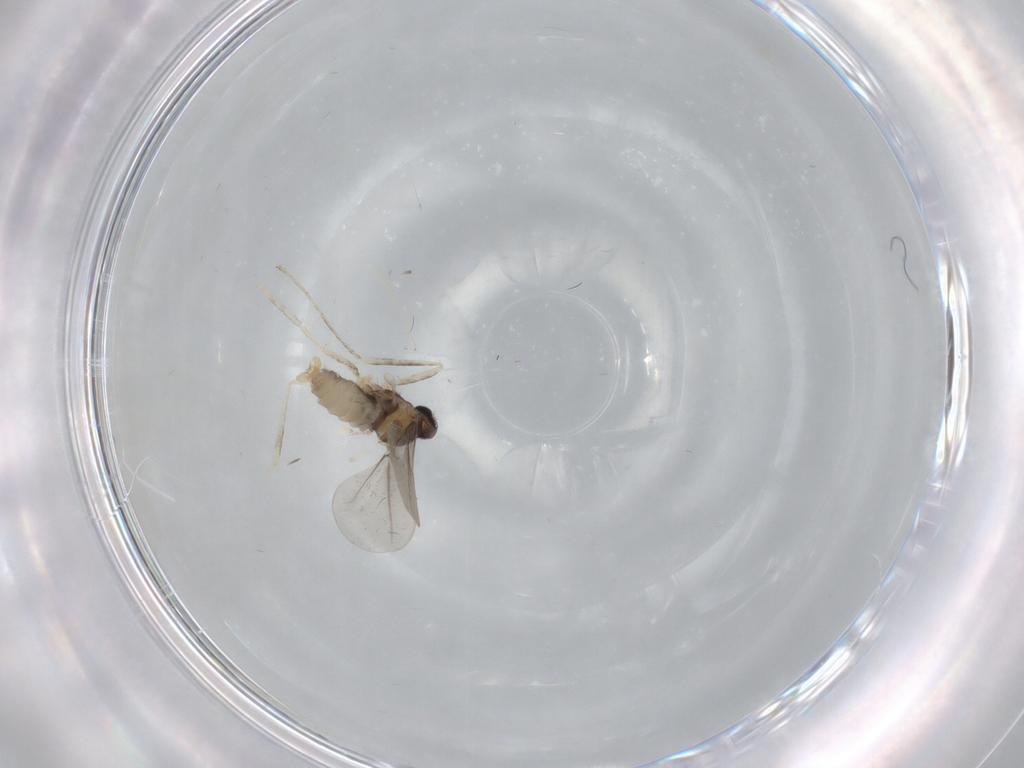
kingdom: Animalia
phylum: Arthropoda
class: Insecta
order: Diptera
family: Cecidomyiidae
